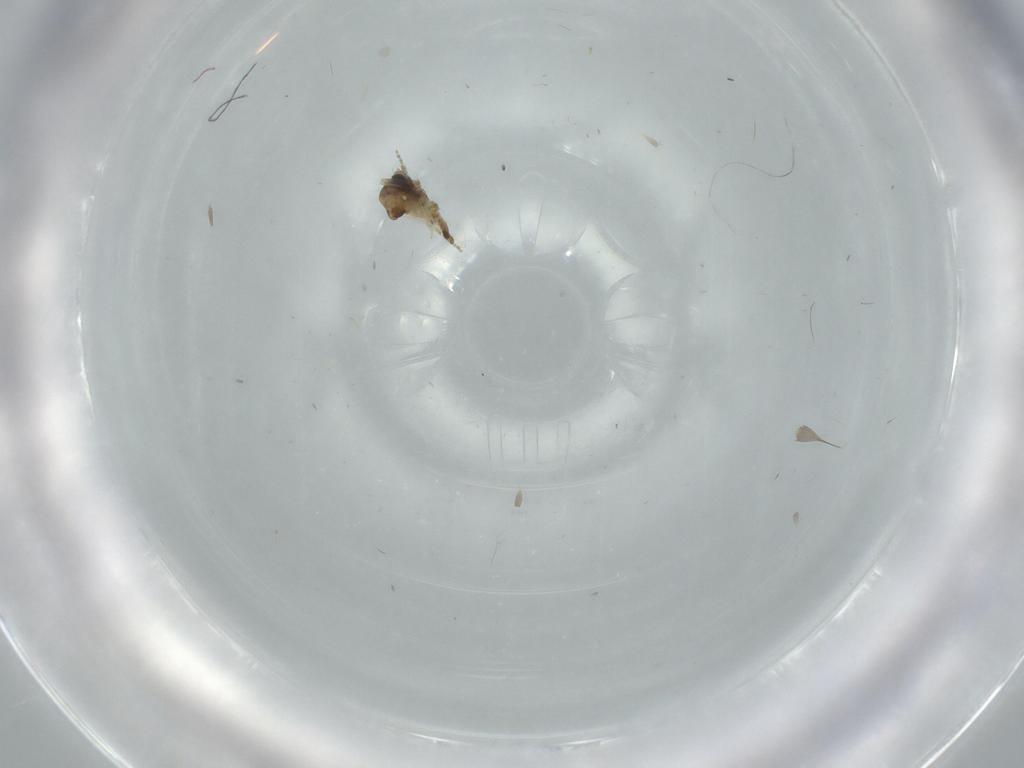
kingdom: Animalia
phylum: Arthropoda
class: Insecta
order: Diptera
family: Ceratopogonidae
